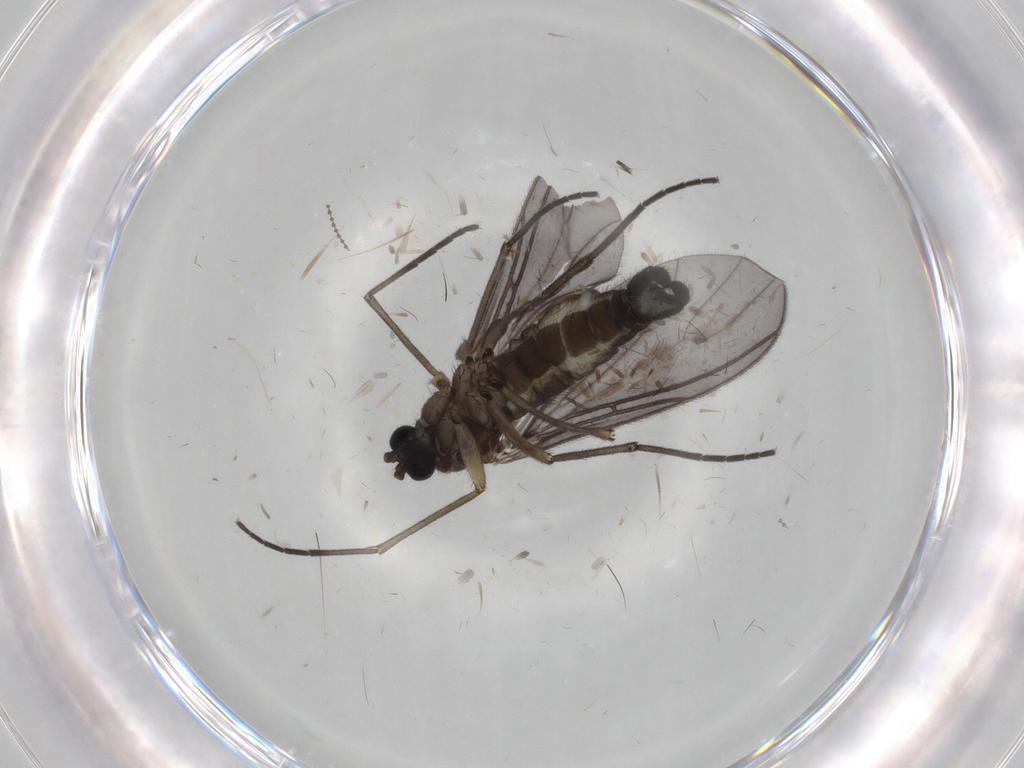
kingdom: Animalia
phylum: Arthropoda
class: Insecta
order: Diptera
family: Sciaridae
